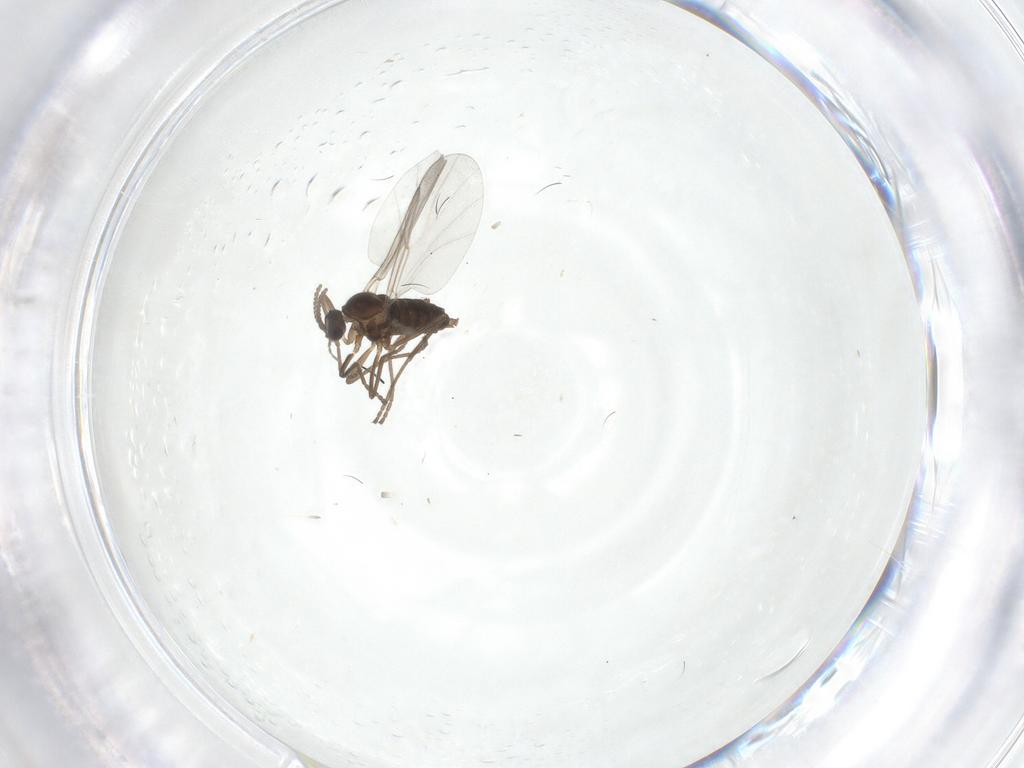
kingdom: Animalia
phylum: Arthropoda
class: Insecta
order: Diptera
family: Cecidomyiidae
